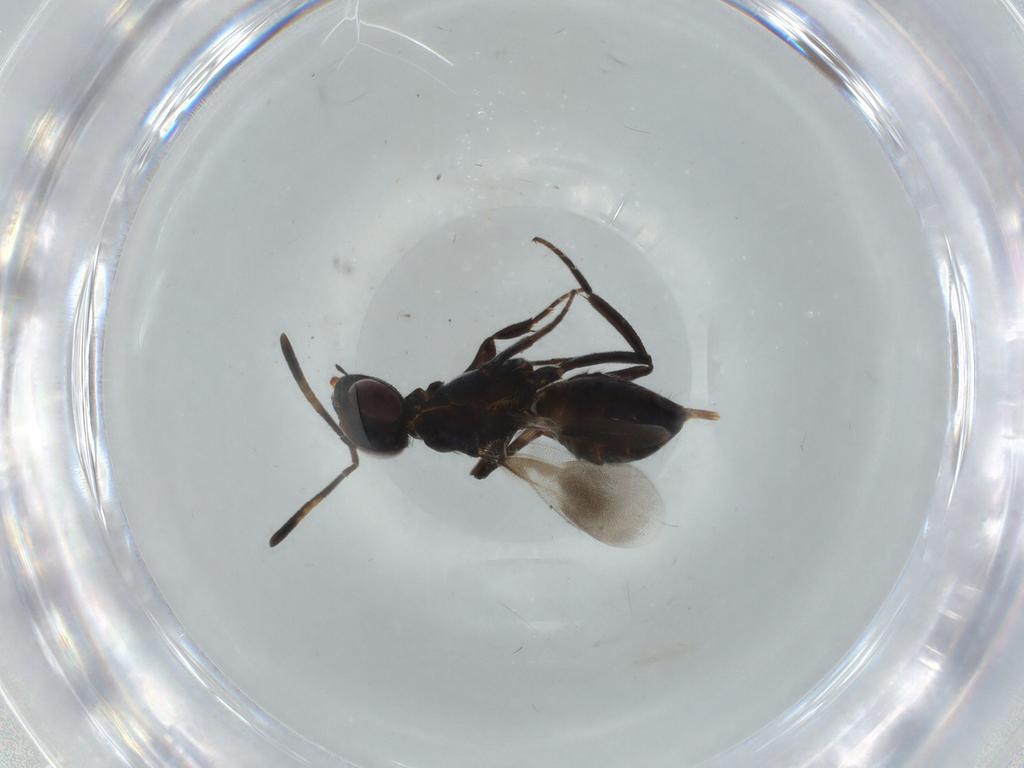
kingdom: Animalia
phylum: Arthropoda
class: Insecta
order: Hymenoptera
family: Eupelmidae
